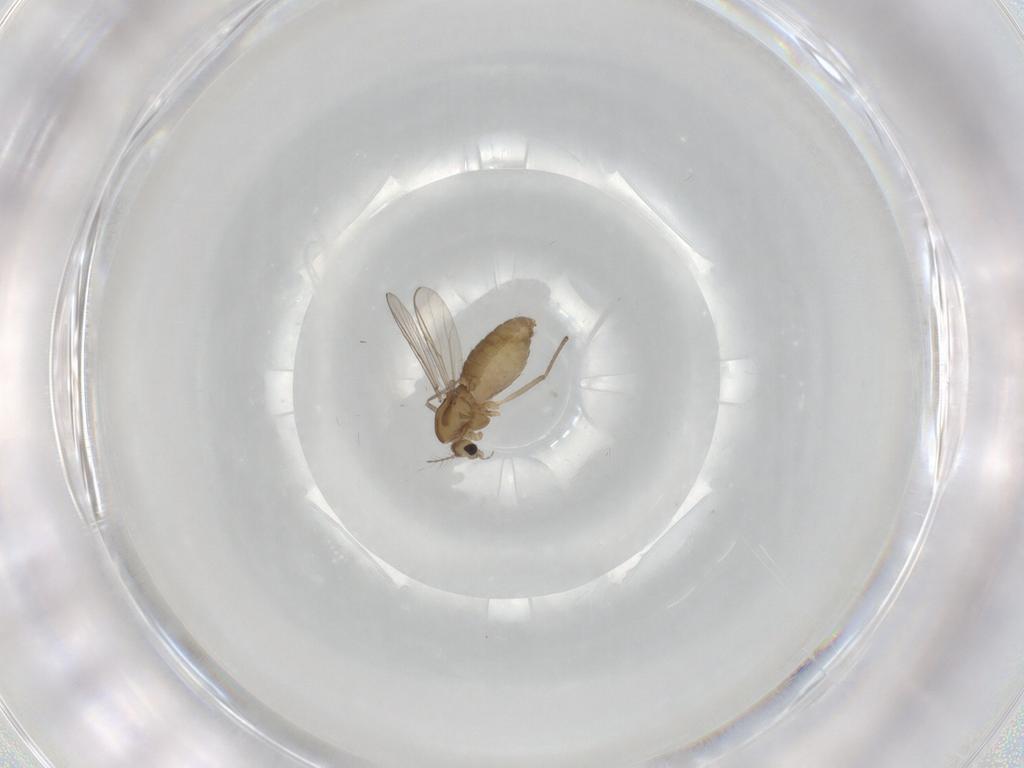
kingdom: Animalia
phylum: Arthropoda
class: Insecta
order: Diptera
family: Chironomidae
